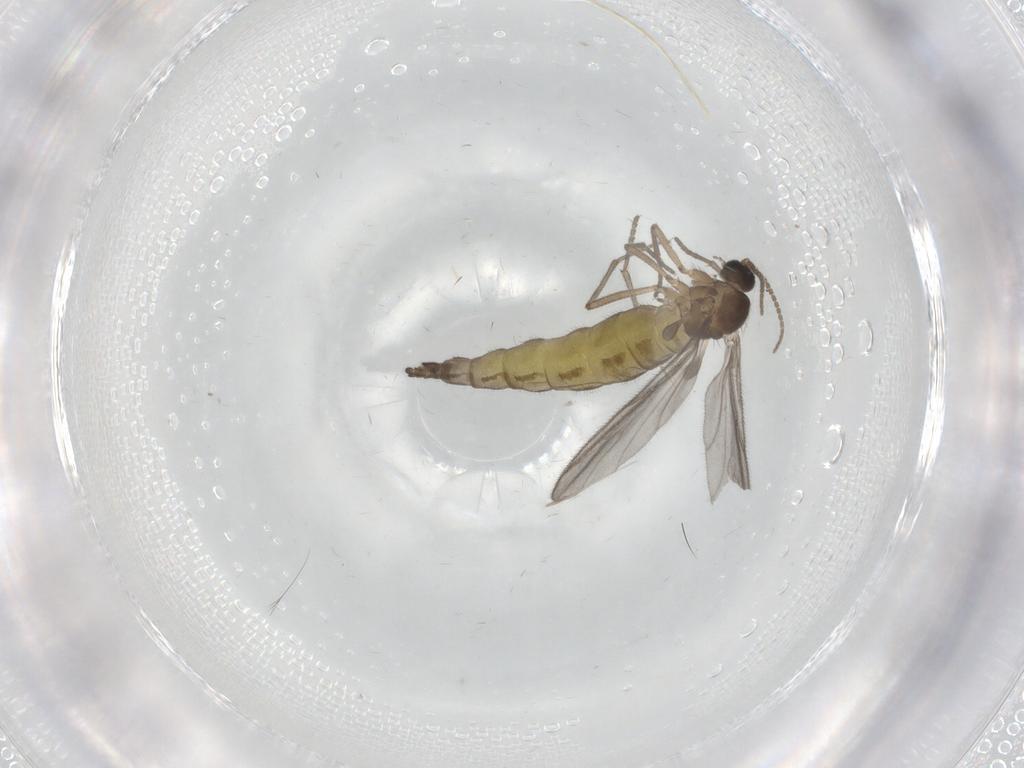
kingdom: Animalia
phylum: Arthropoda
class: Insecta
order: Diptera
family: Sciaridae
